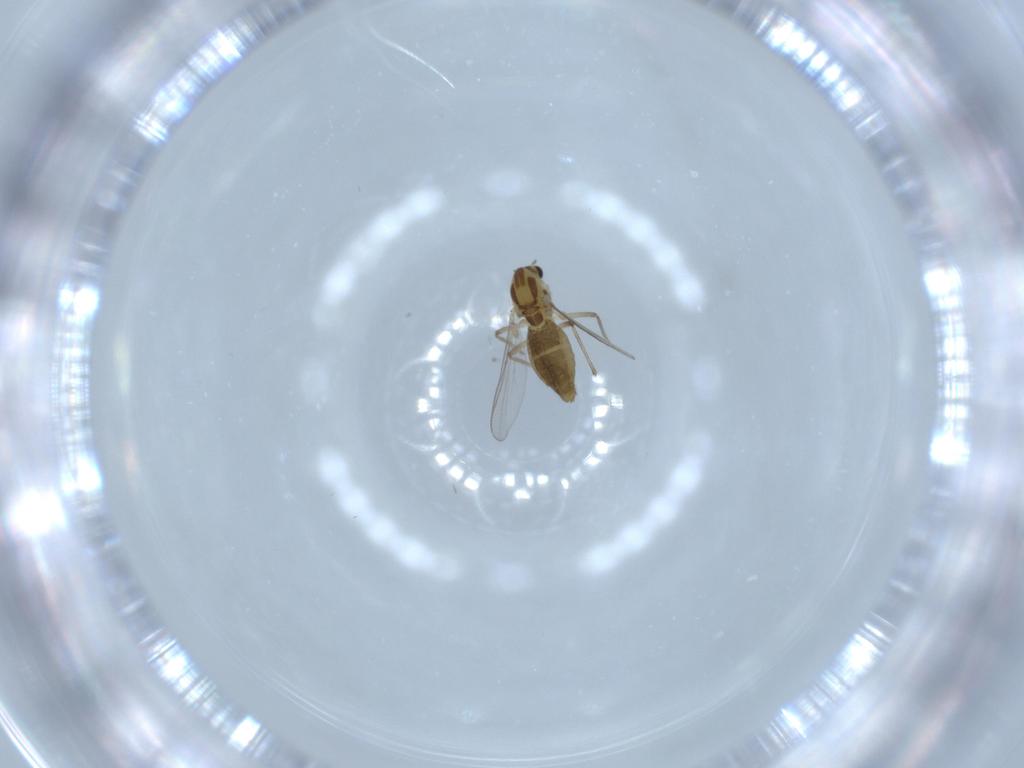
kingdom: Animalia
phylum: Arthropoda
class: Insecta
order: Diptera
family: Chironomidae
